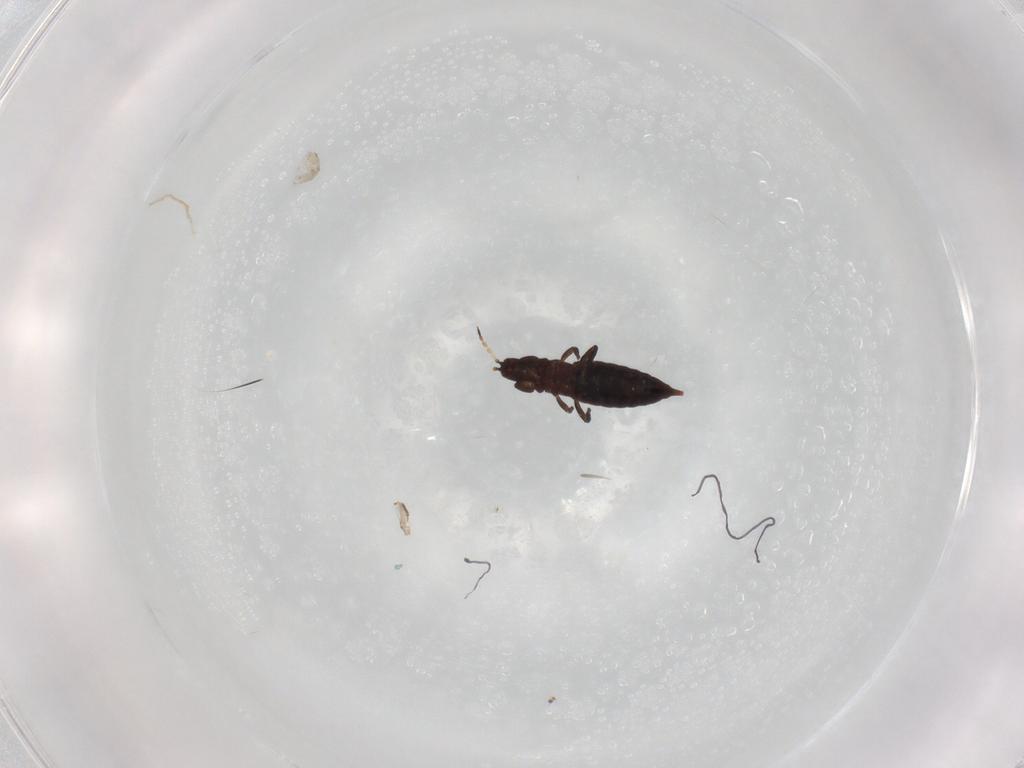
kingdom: Animalia
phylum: Arthropoda
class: Insecta
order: Thysanoptera
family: Phlaeothripidae
